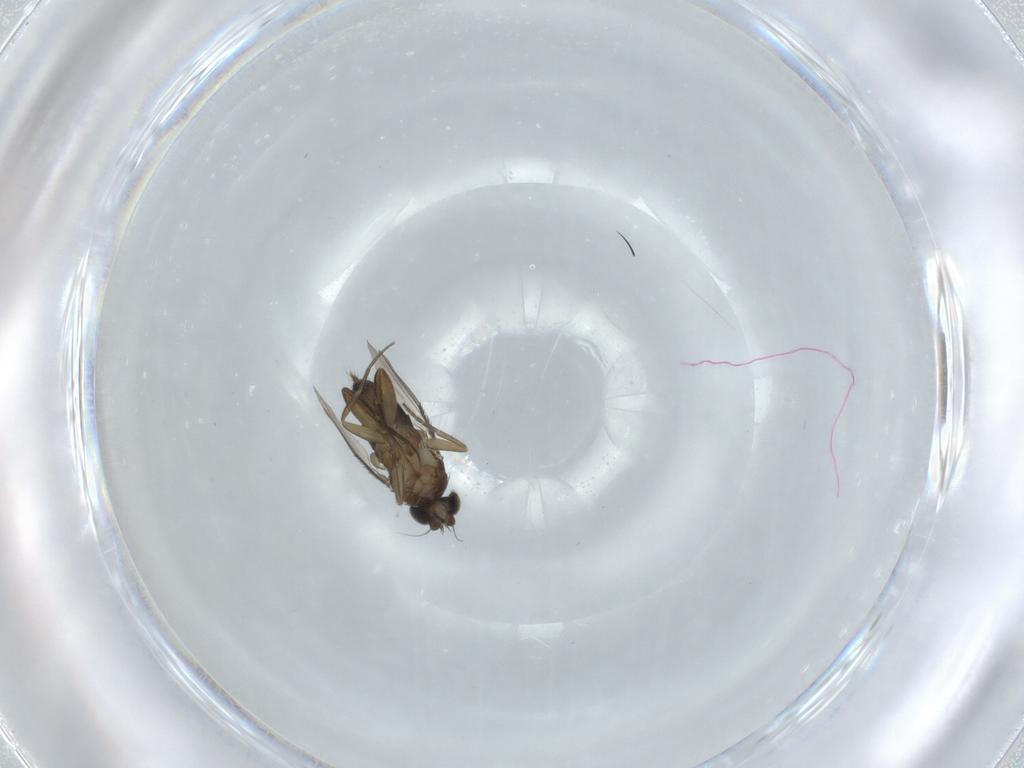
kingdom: Animalia
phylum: Arthropoda
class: Insecta
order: Diptera
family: Phoridae
